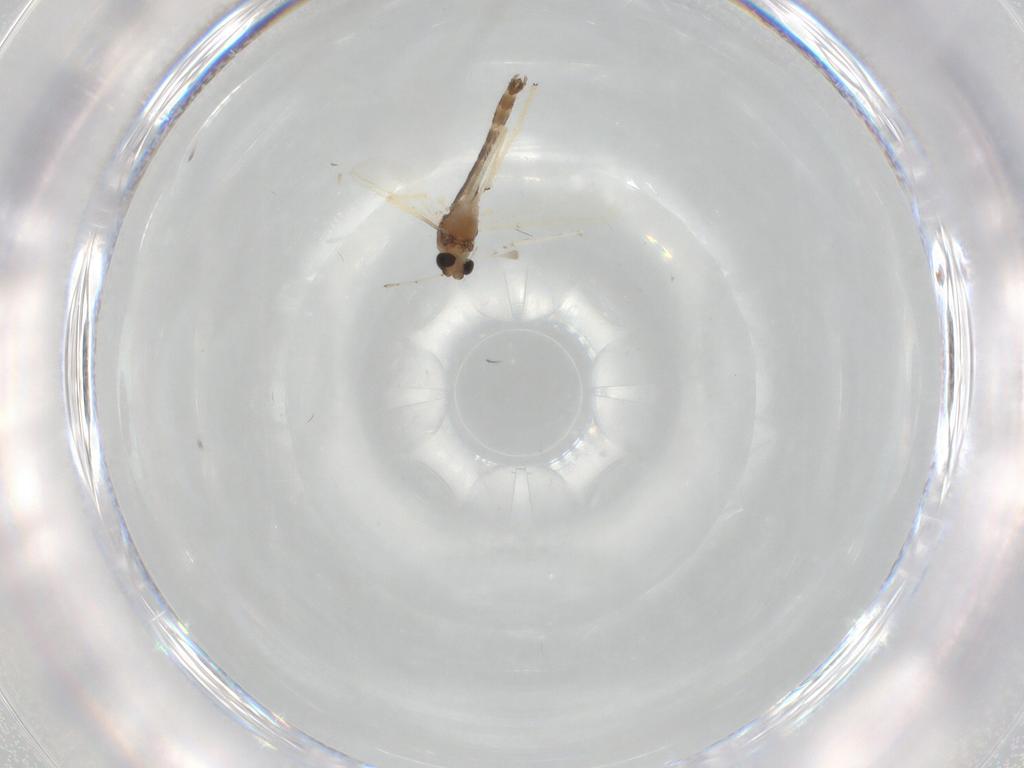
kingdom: Animalia
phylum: Arthropoda
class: Insecta
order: Diptera
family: Chironomidae
